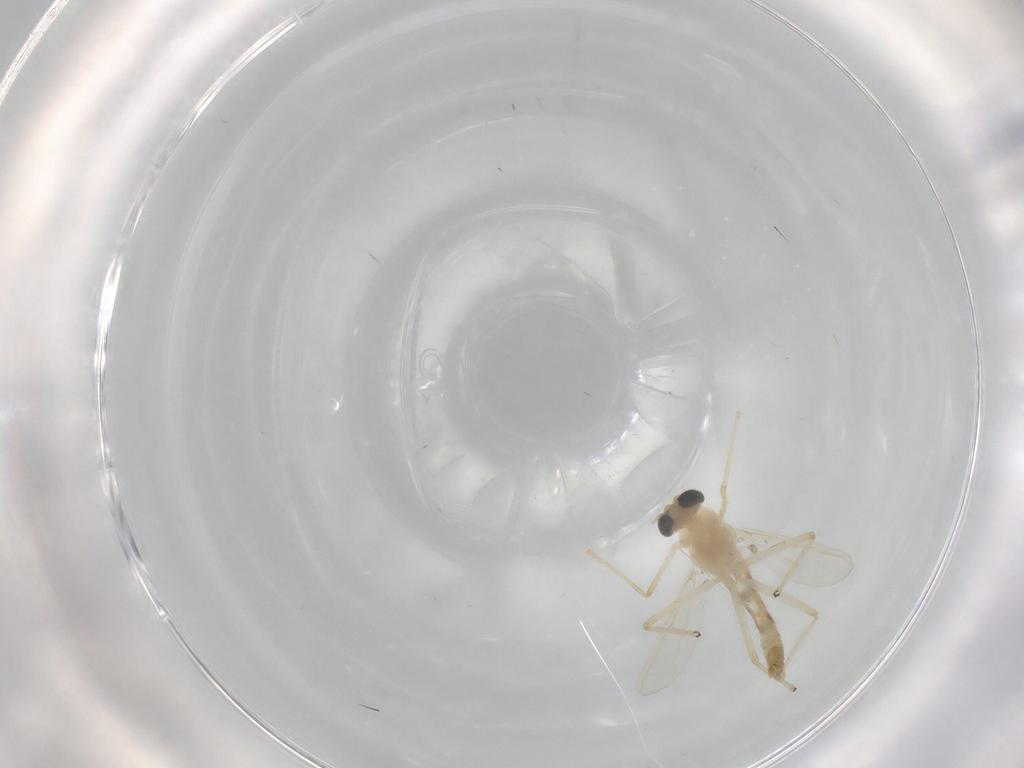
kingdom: Animalia
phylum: Arthropoda
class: Insecta
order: Diptera
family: Chironomidae
